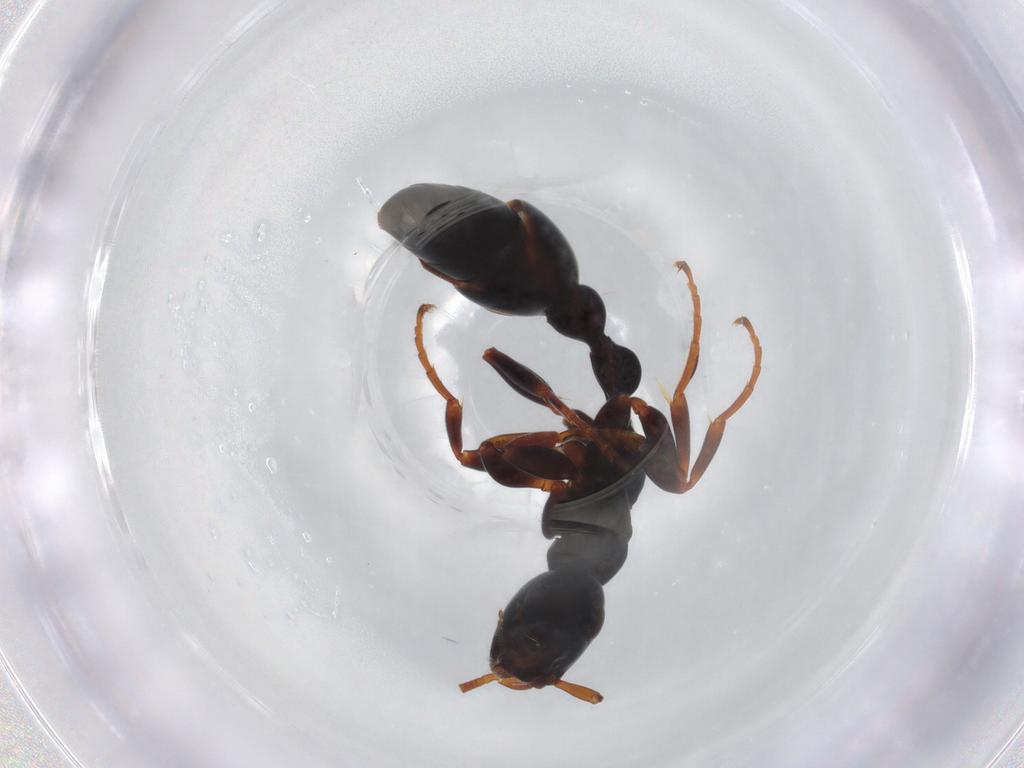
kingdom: Animalia
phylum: Arthropoda
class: Insecta
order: Hymenoptera
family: Formicidae
